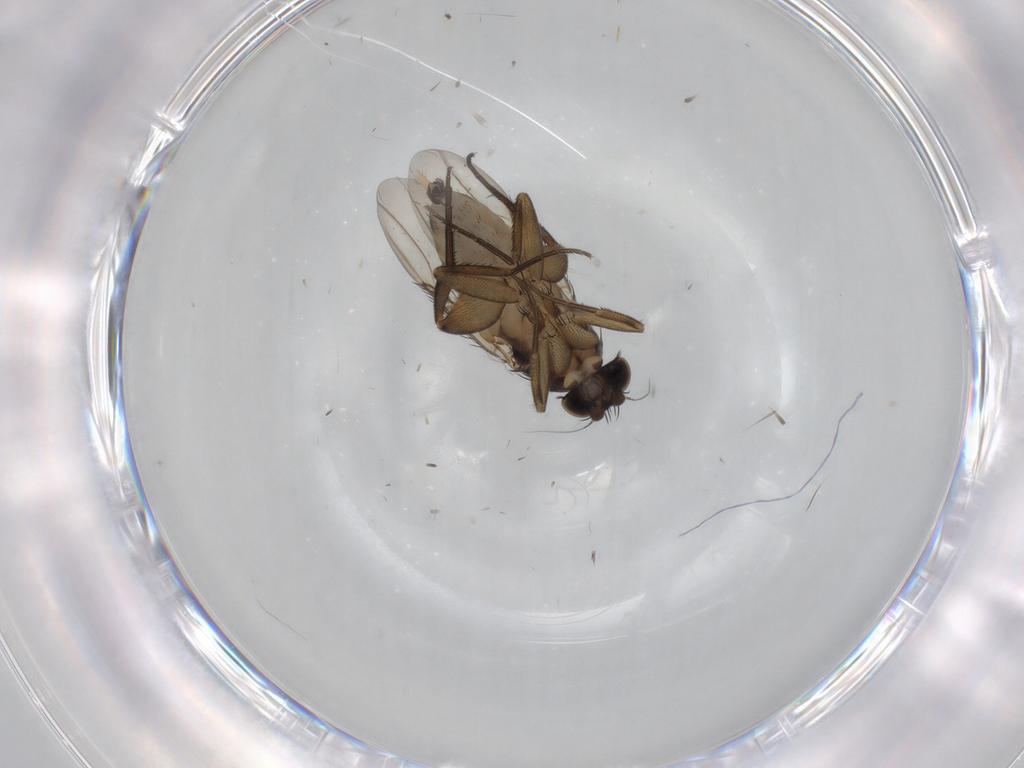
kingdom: Animalia
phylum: Arthropoda
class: Insecta
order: Diptera
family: Phoridae
